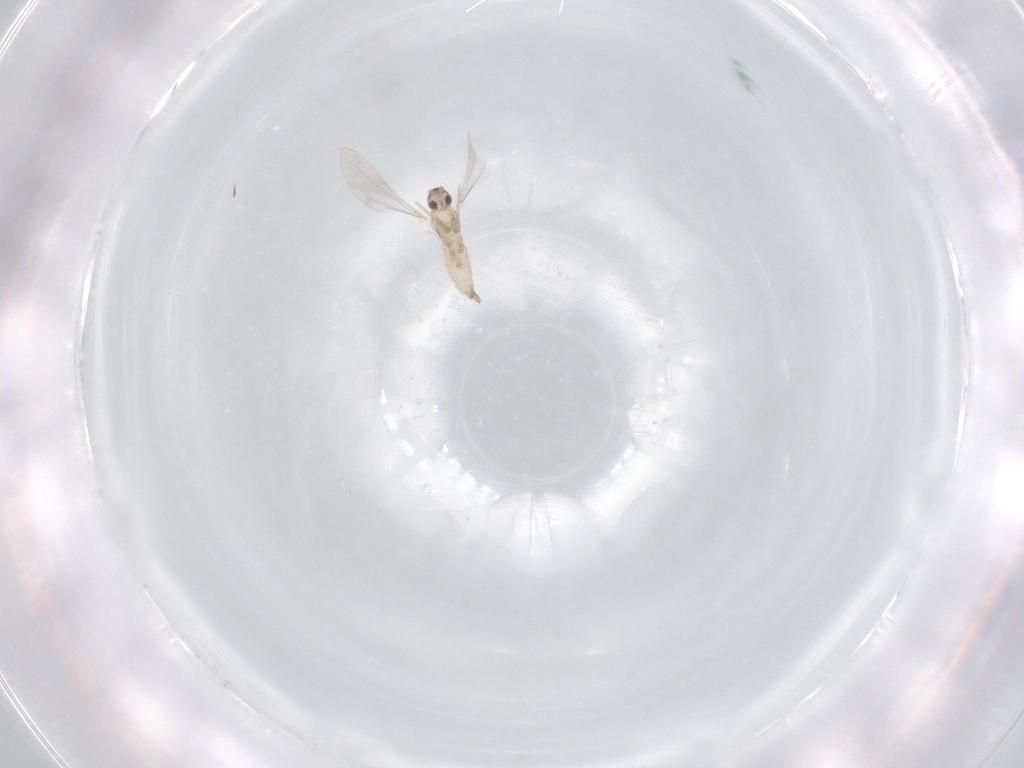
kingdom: Animalia
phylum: Arthropoda
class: Insecta
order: Diptera
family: Cecidomyiidae
